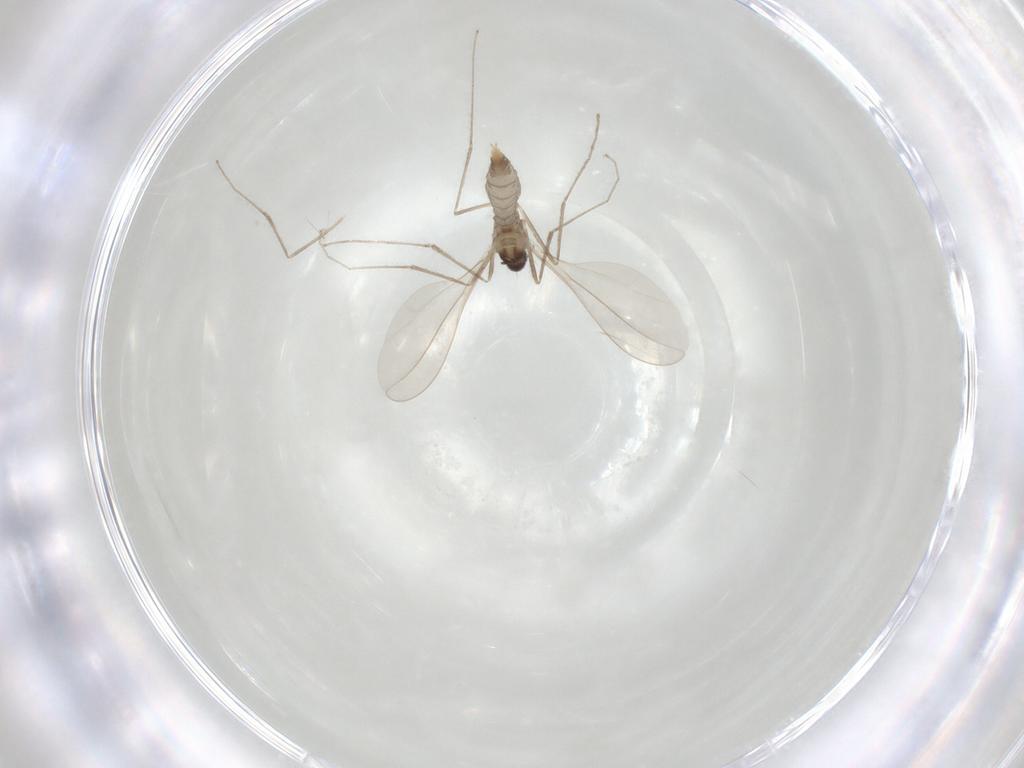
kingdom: Animalia
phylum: Arthropoda
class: Insecta
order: Diptera
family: Cecidomyiidae
